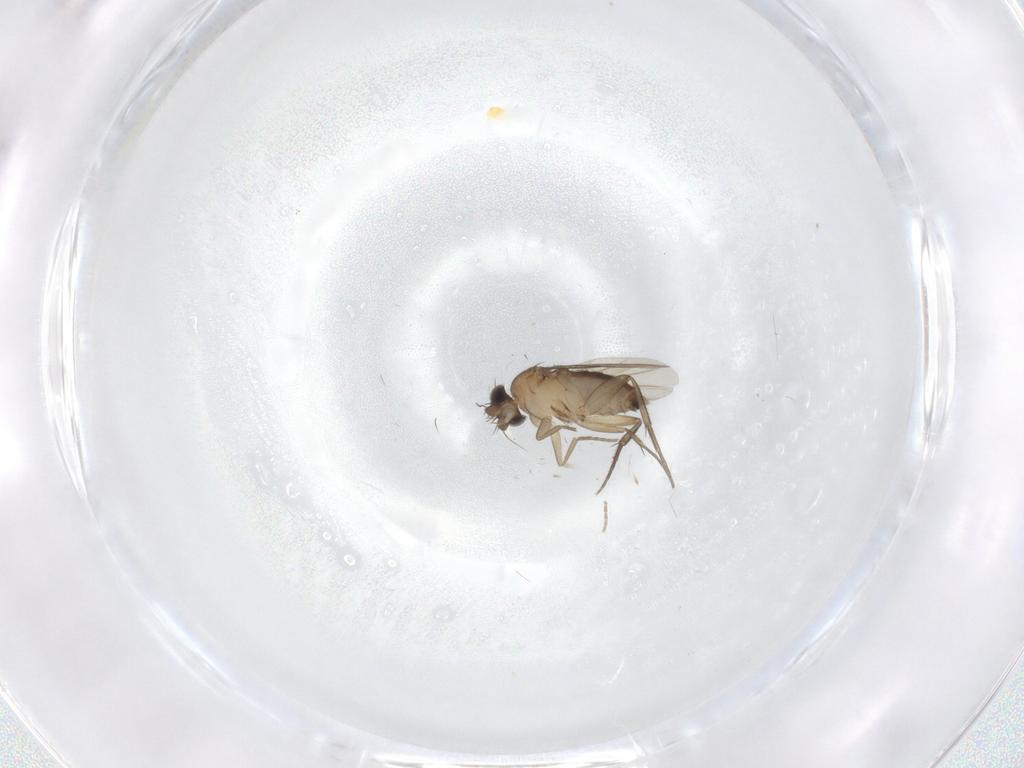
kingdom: Animalia
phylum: Arthropoda
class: Insecta
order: Diptera
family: Phoridae
